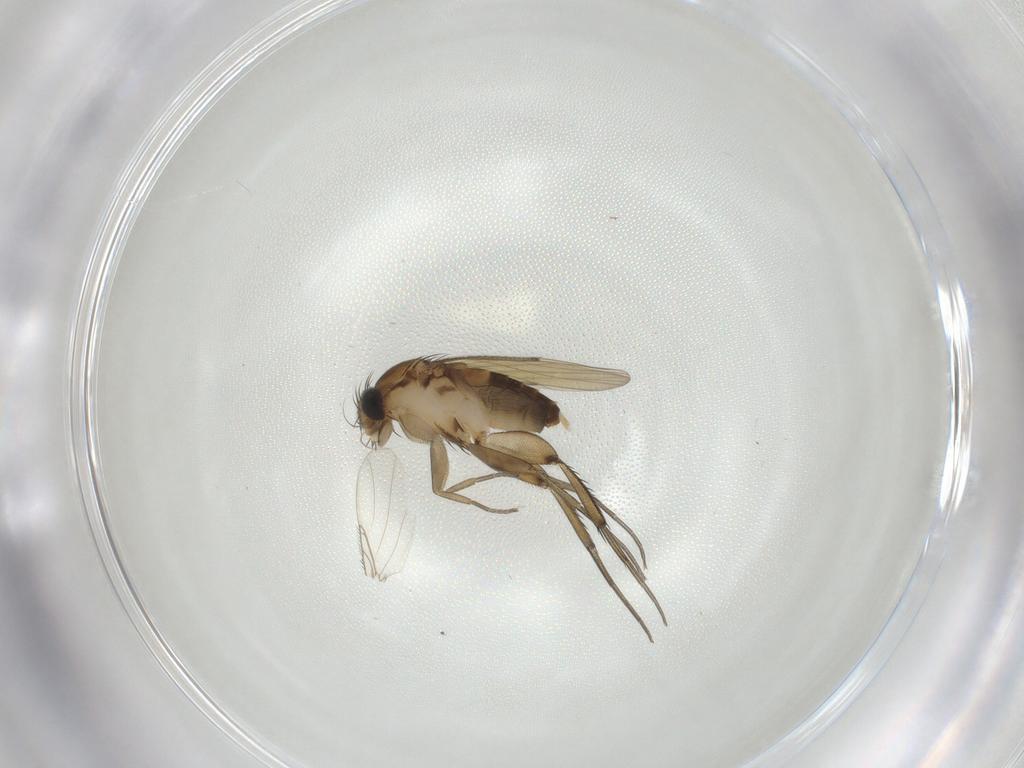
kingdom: Animalia
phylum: Arthropoda
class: Insecta
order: Diptera
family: Phoridae
